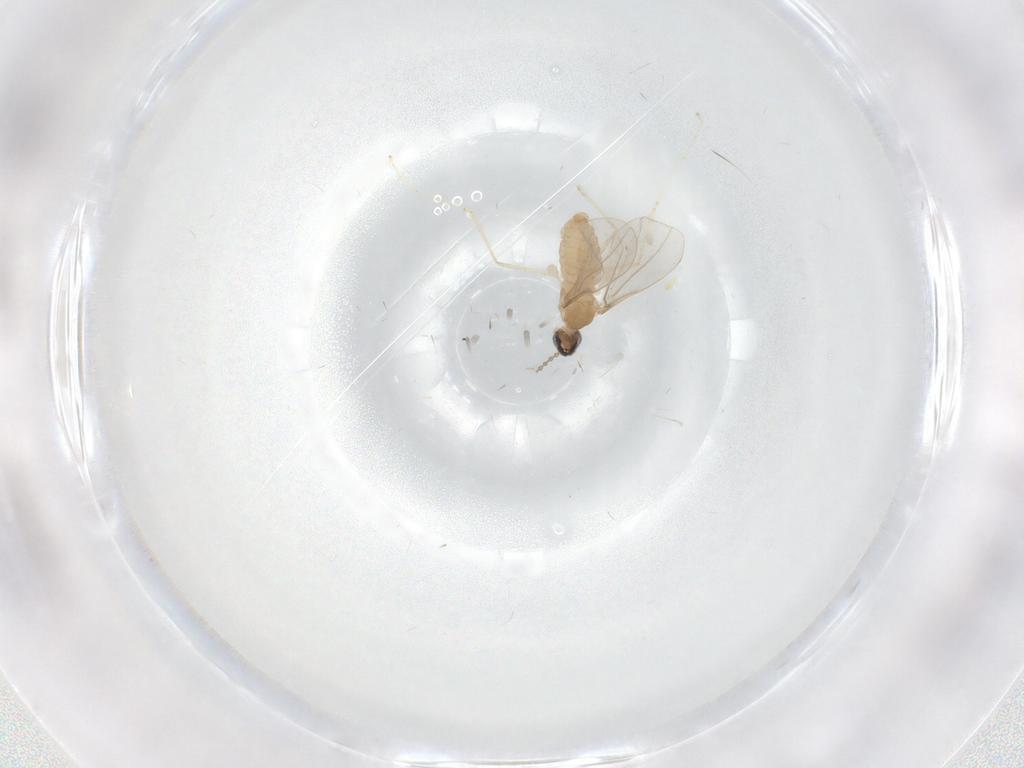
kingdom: Animalia
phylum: Arthropoda
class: Insecta
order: Diptera
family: Cecidomyiidae
